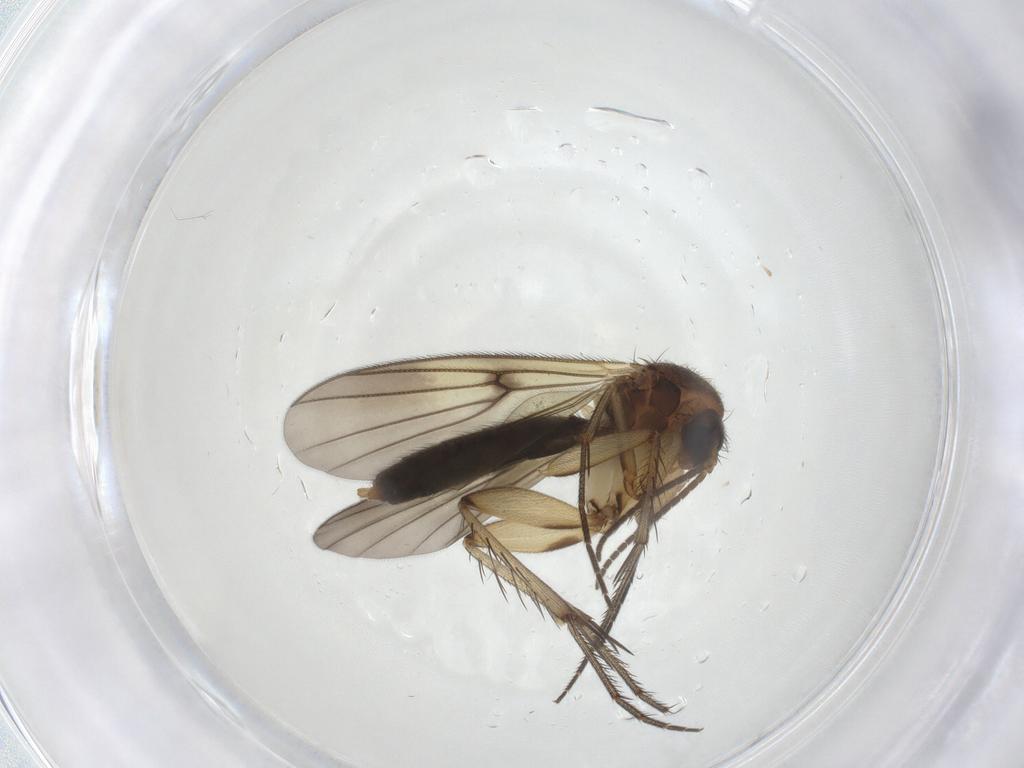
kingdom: Animalia
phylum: Arthropoda
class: Insecta
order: Diptera
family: Mycetophilidae
